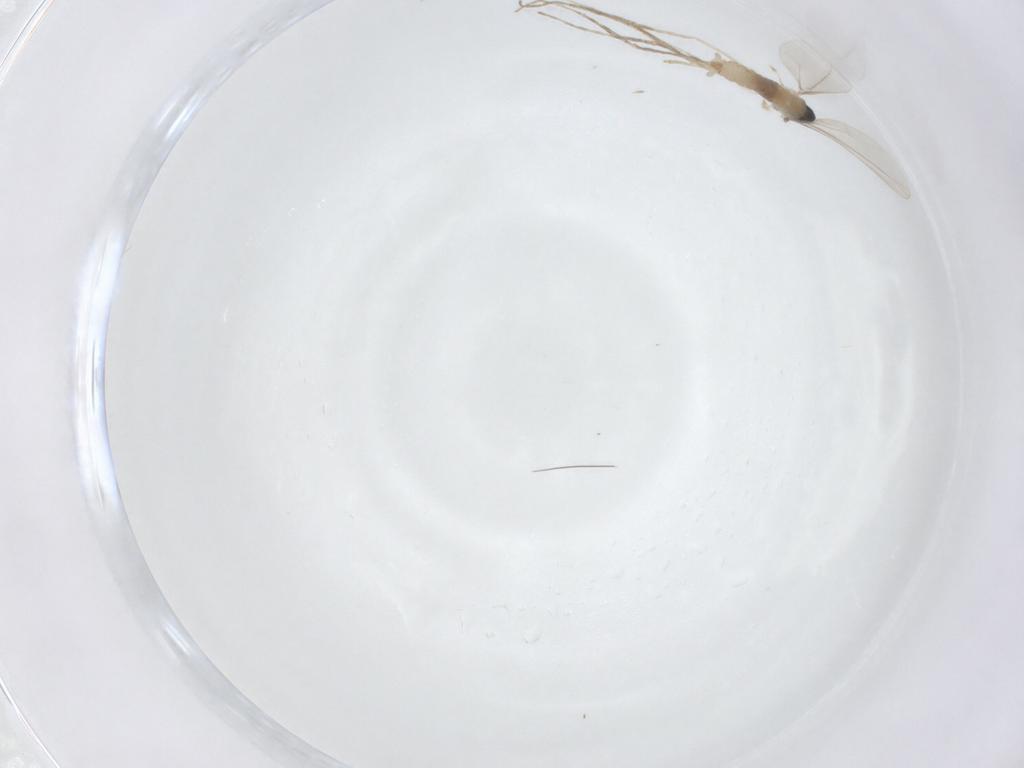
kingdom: Animalia
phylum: Arthropoda
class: Insecta
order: Diptera
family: Cecidomyiidae
